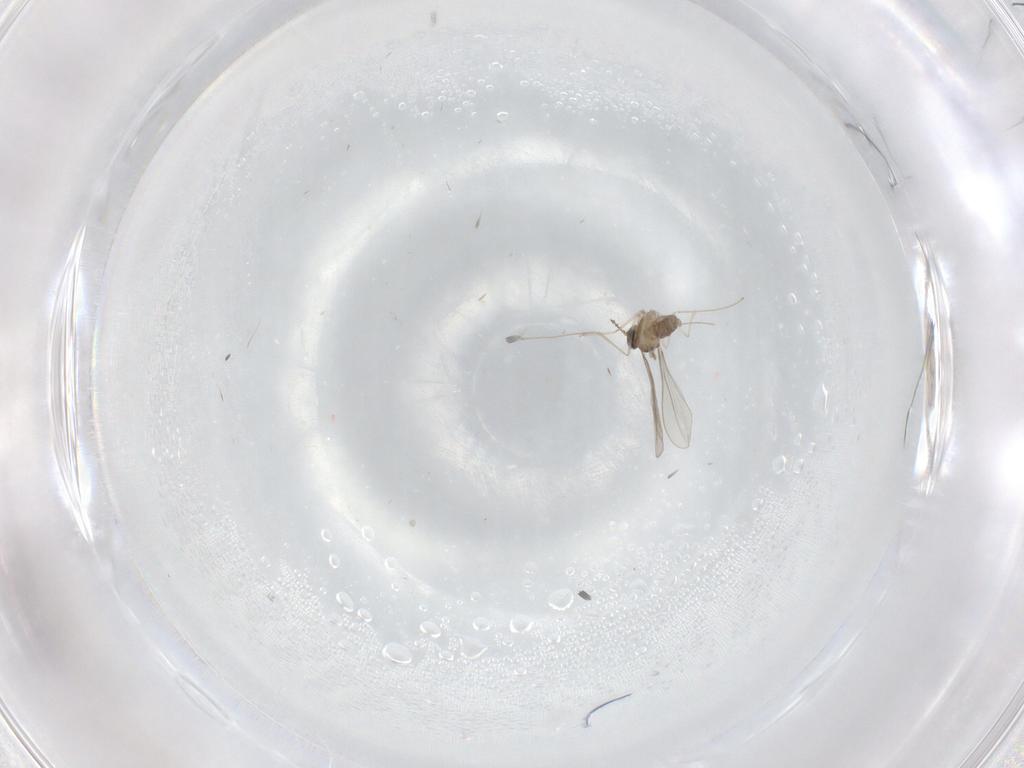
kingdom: Animalia
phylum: Arthropoda
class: Insecta
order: Diptera
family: Cecidomyiidae
